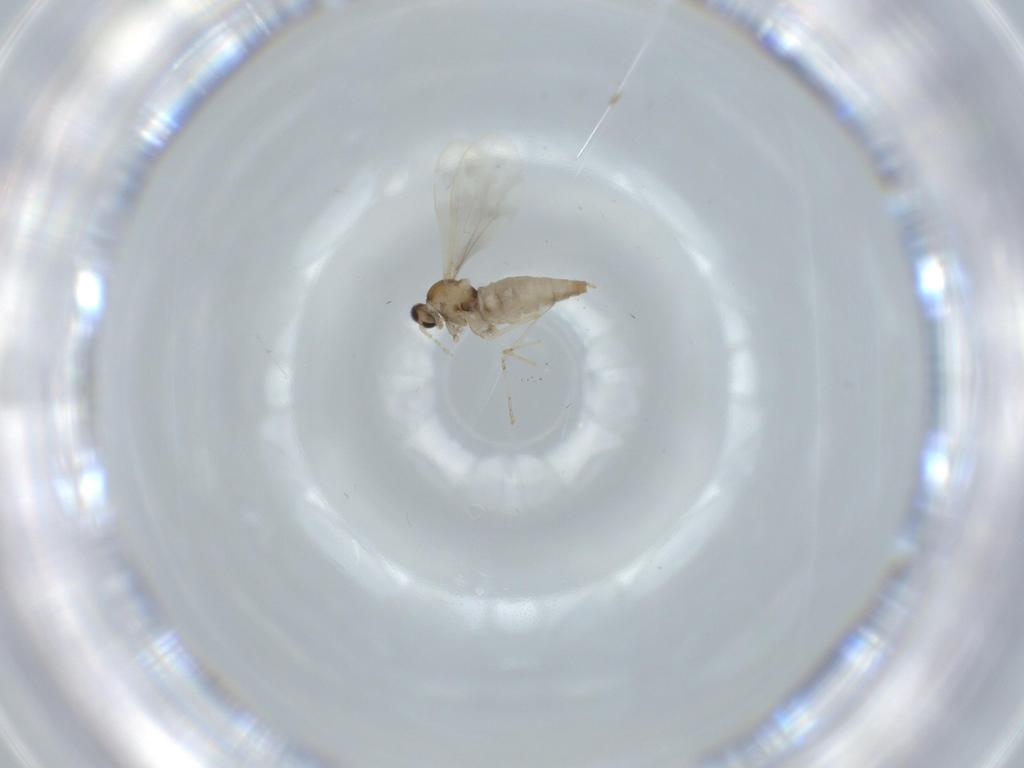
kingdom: Animalia
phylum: Arthropoda
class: Insecta
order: Diptera
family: Cecidomyiidae
